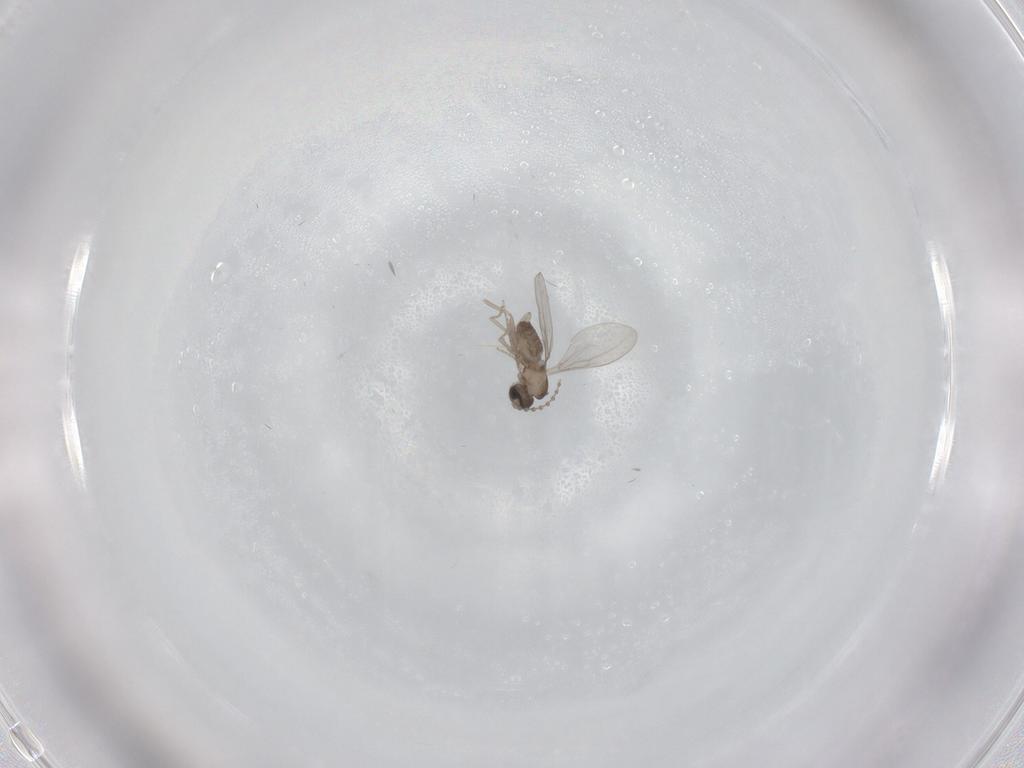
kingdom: Animalia
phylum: Arthropoda
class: Insecta
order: Diptera
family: Cecidomyiidae
